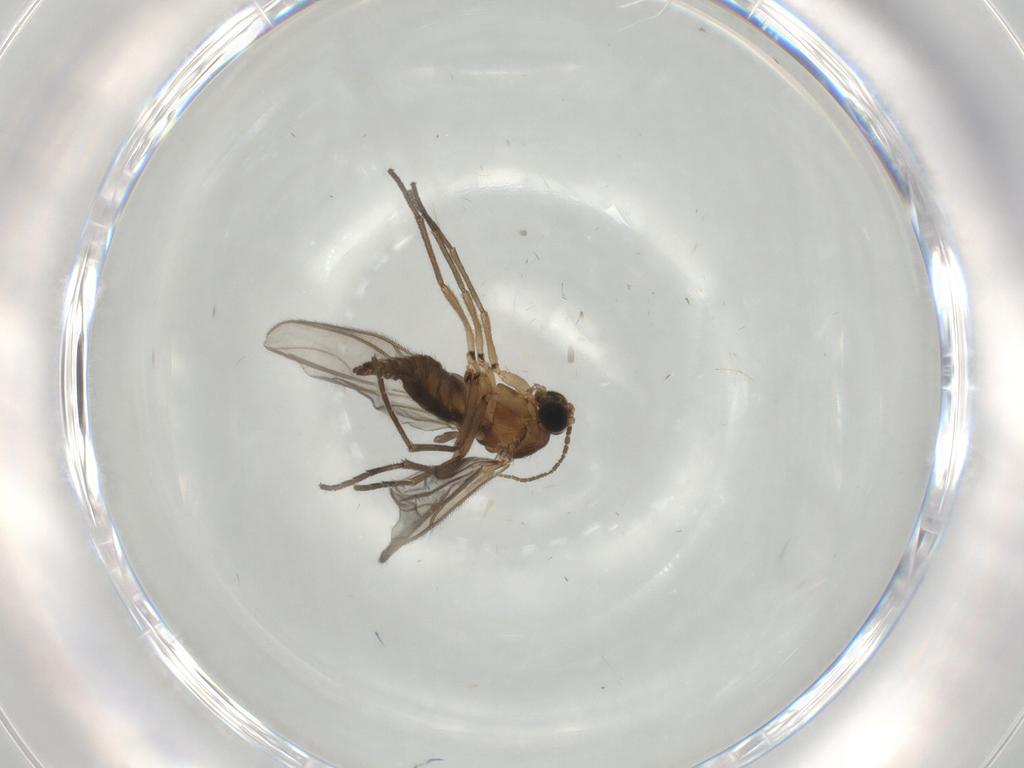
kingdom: Animalia
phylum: Arthropoda
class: Insecta
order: Diptera
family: Sciaridae
